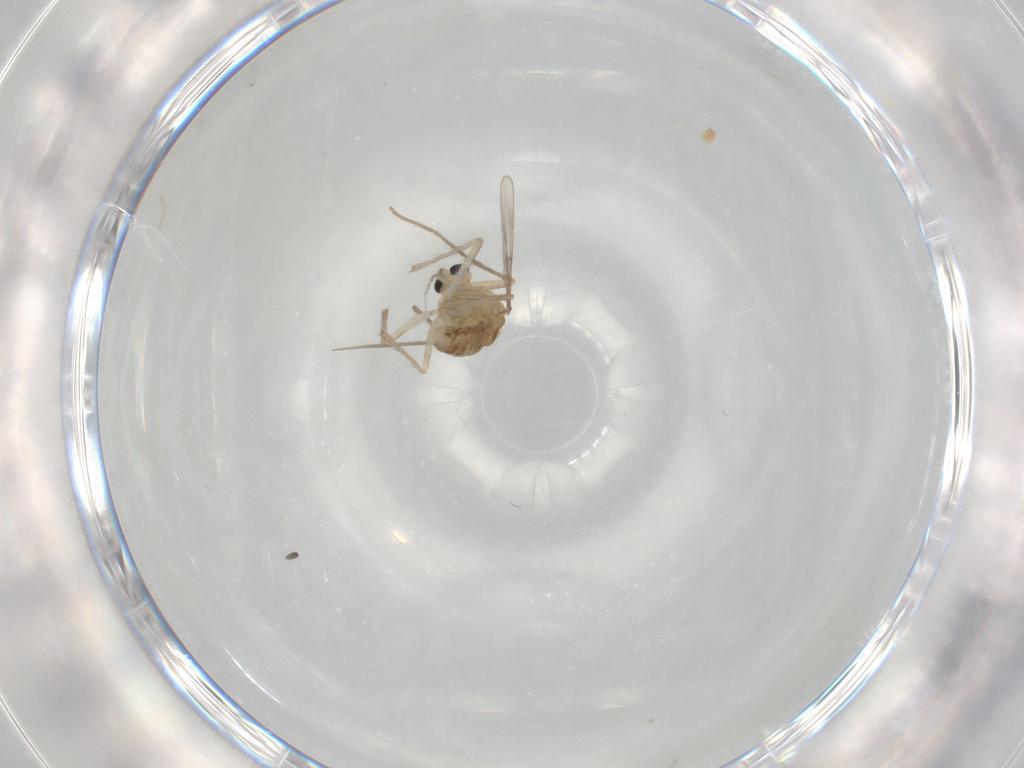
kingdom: Animalia
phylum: Arthropoda
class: Insecta
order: Diptera
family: Chironomidae
